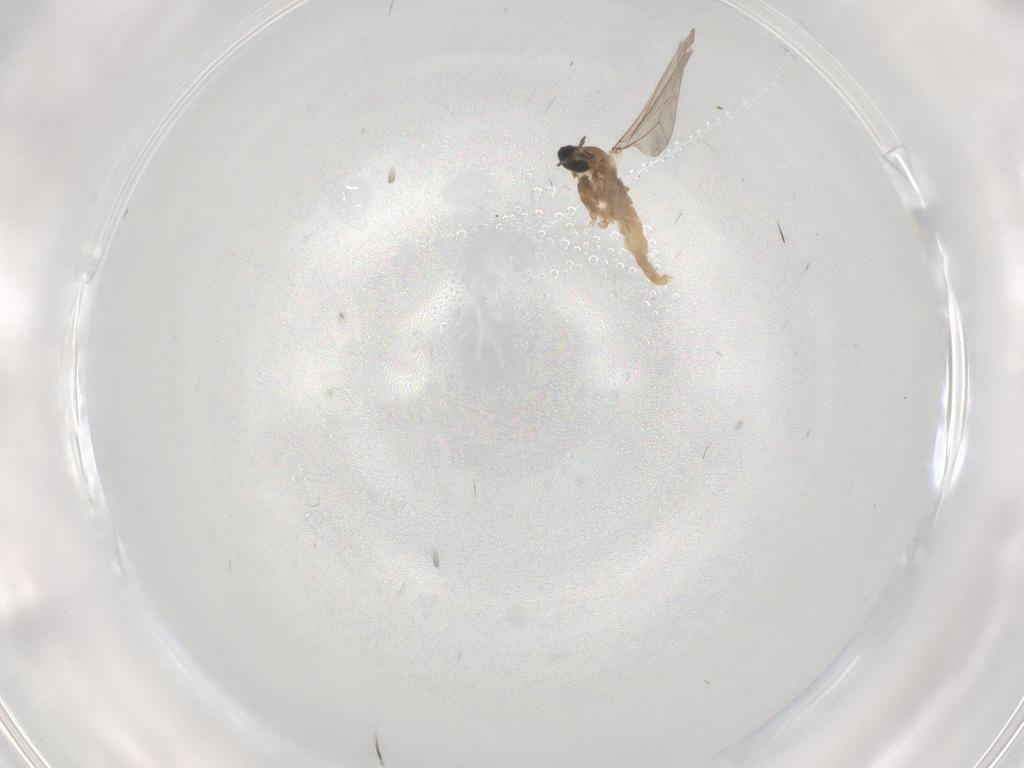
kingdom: Animalia
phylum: Arthropoda
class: Insecta
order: Diptera
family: Cecidomyiidae
